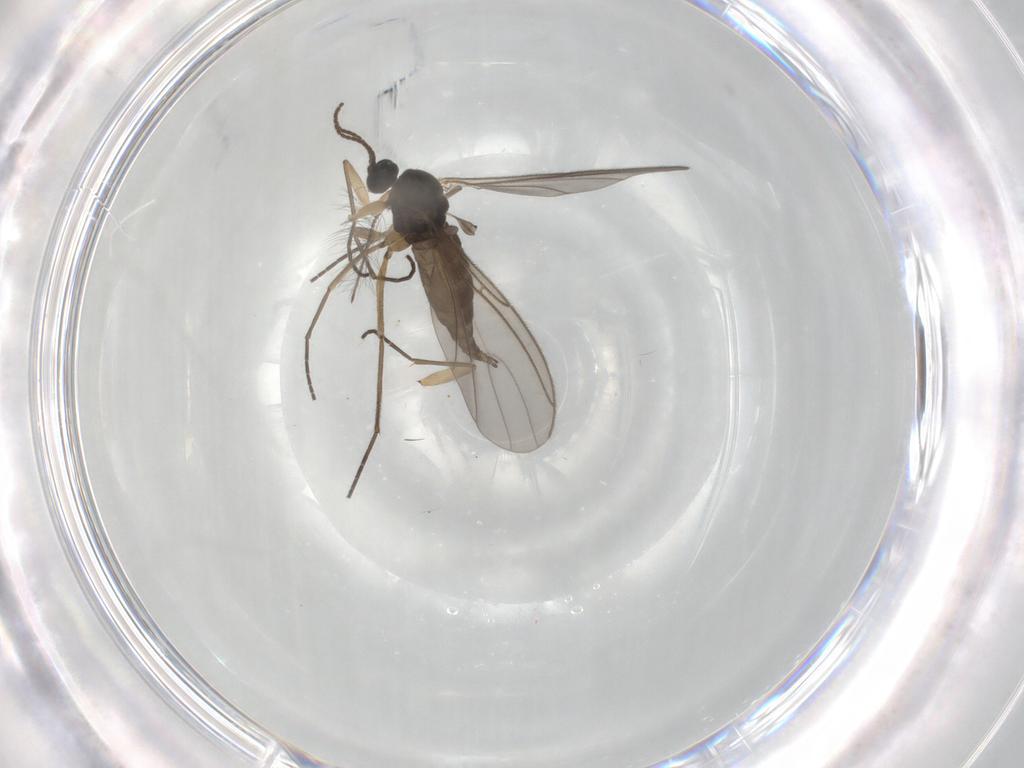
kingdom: Animalia
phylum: Arthropoda
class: Insecta
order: Diptera
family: Sciaridae
